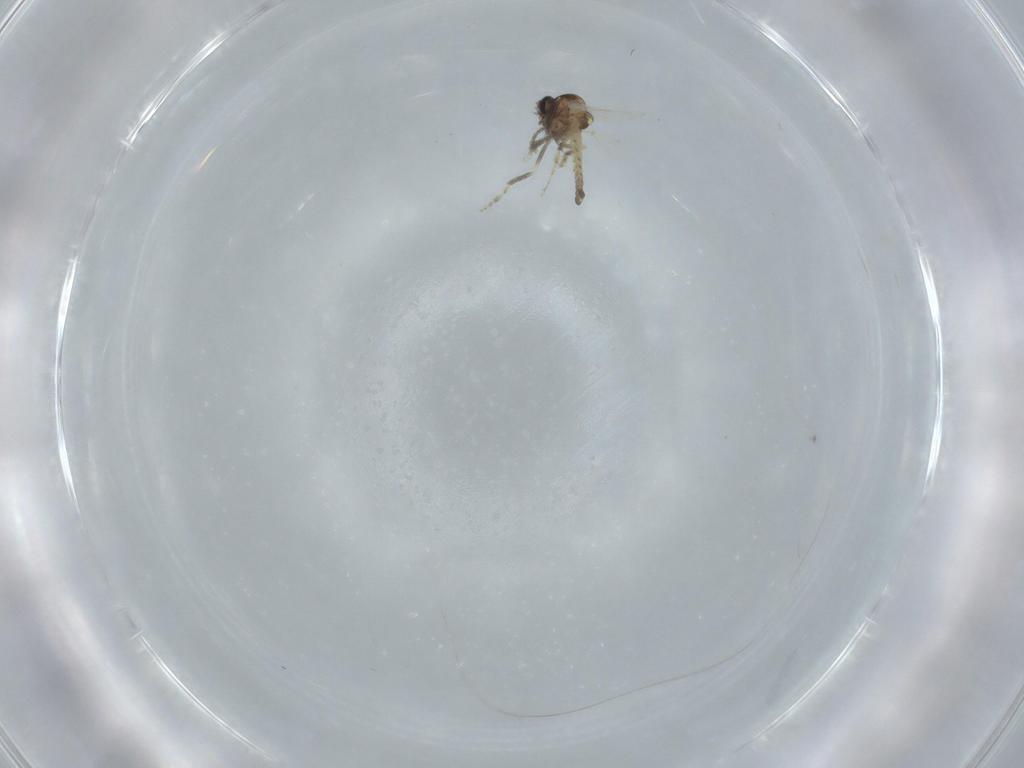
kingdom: Animalia
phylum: Arthropoda
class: Insecta
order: Diptera
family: Ceratopogonidae
